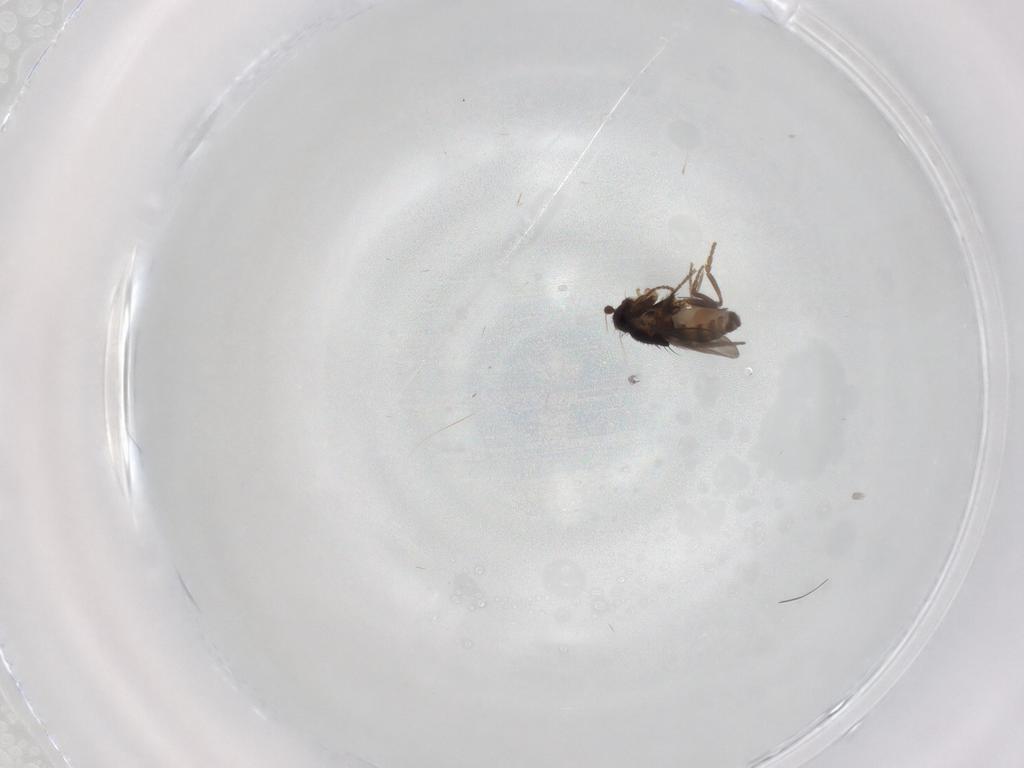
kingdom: Animalia
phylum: Arthropoda
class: Insecta
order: Diptera
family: Sphaeroceridae
